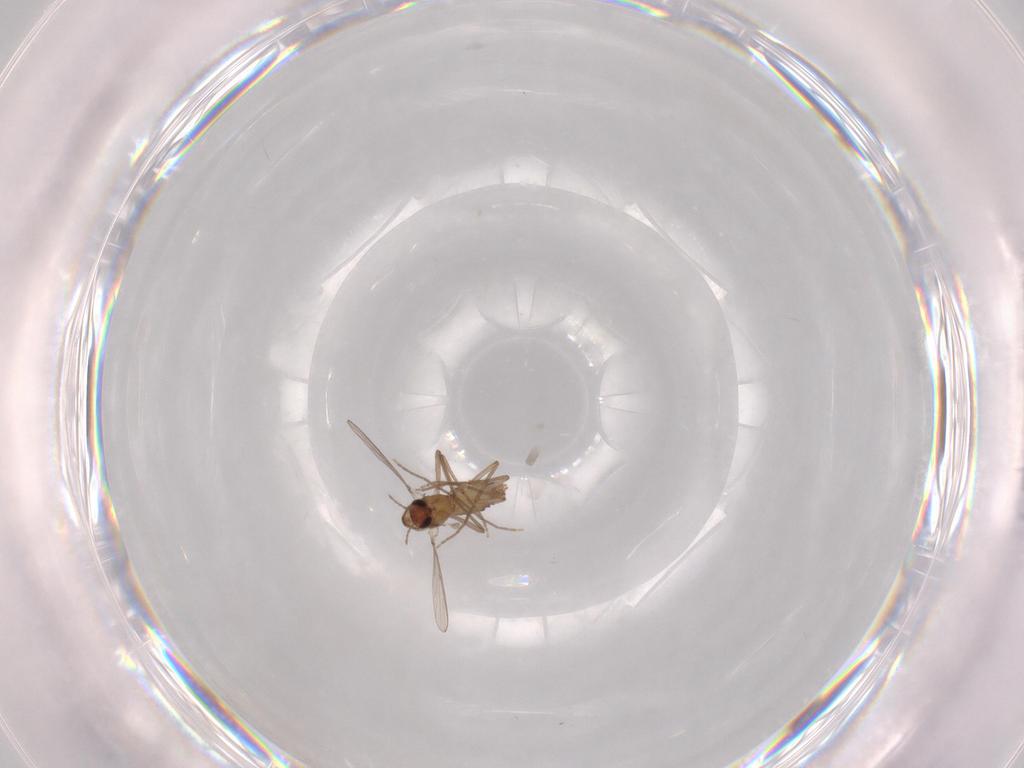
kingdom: Animalia
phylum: Arthropoda
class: Insecta
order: Diptera
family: Chironomidae
